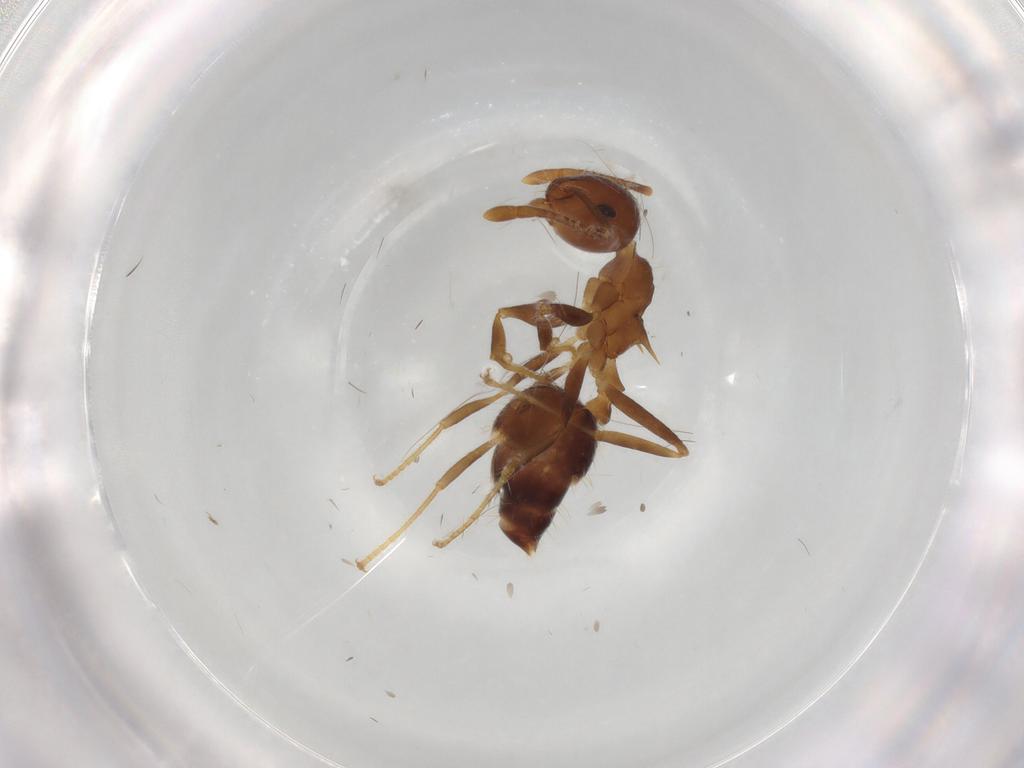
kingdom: Animalia
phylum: Arthropoda
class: Insecta
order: Hymenoptera
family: Formicidae
